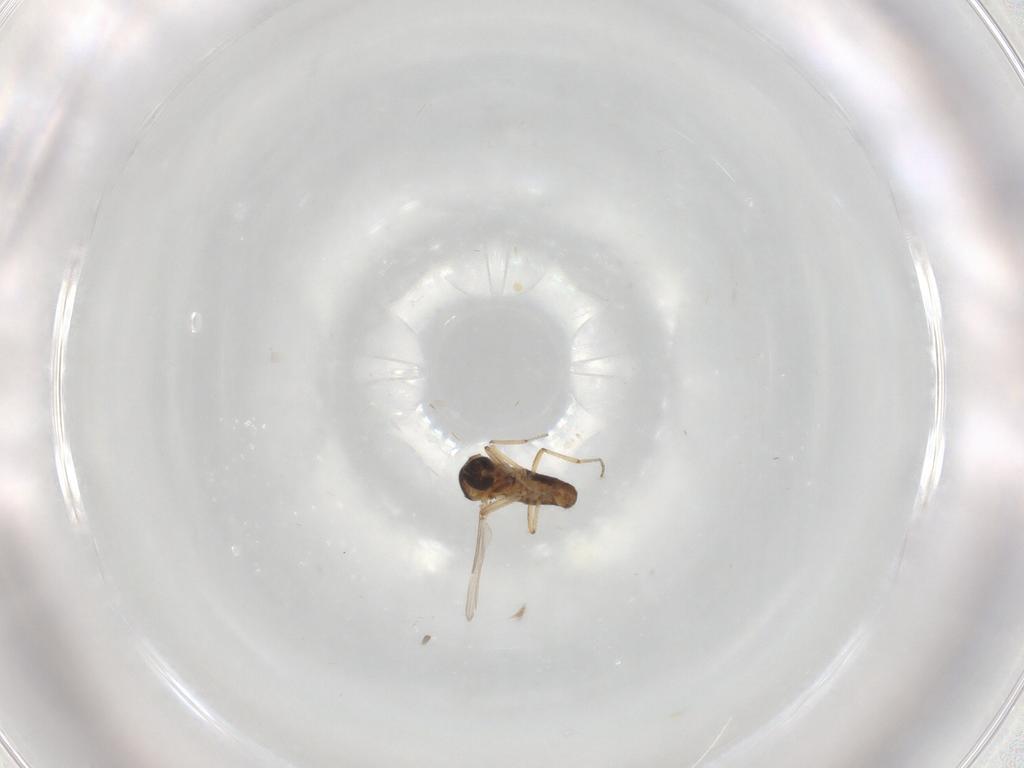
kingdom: Animalia
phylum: Arthropoda
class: Insecta
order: Diptera
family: Ceratopogonidae
